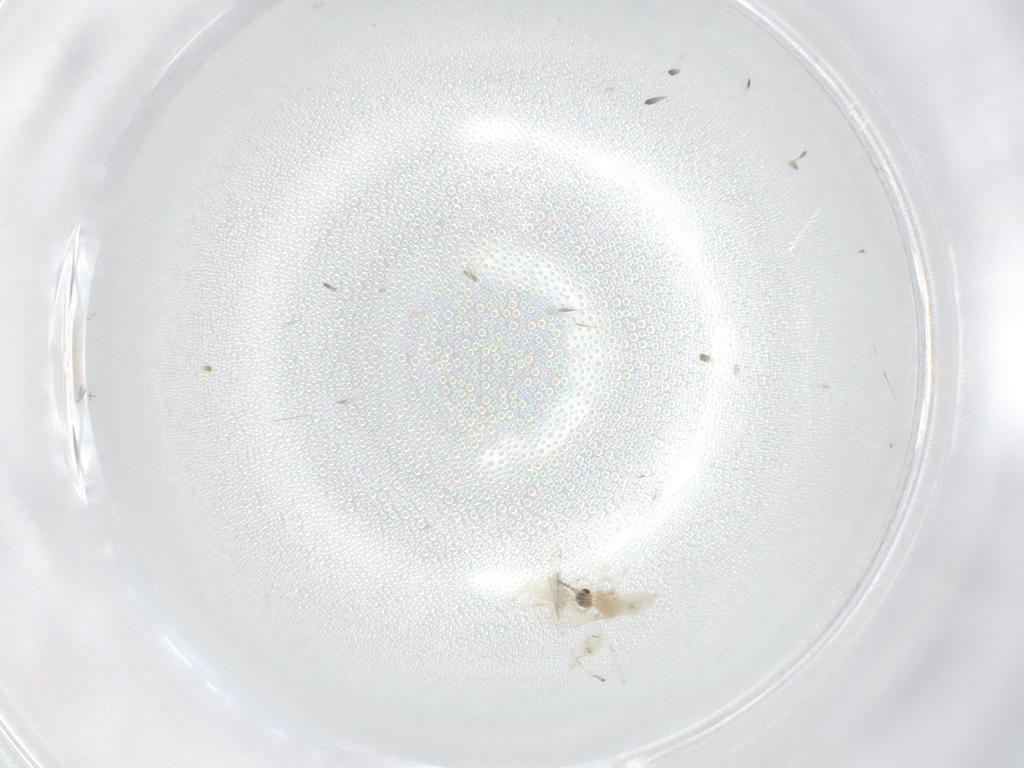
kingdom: Animalia
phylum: Arthropoda
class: Insecta
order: Diptera
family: Cecidomyiidae
